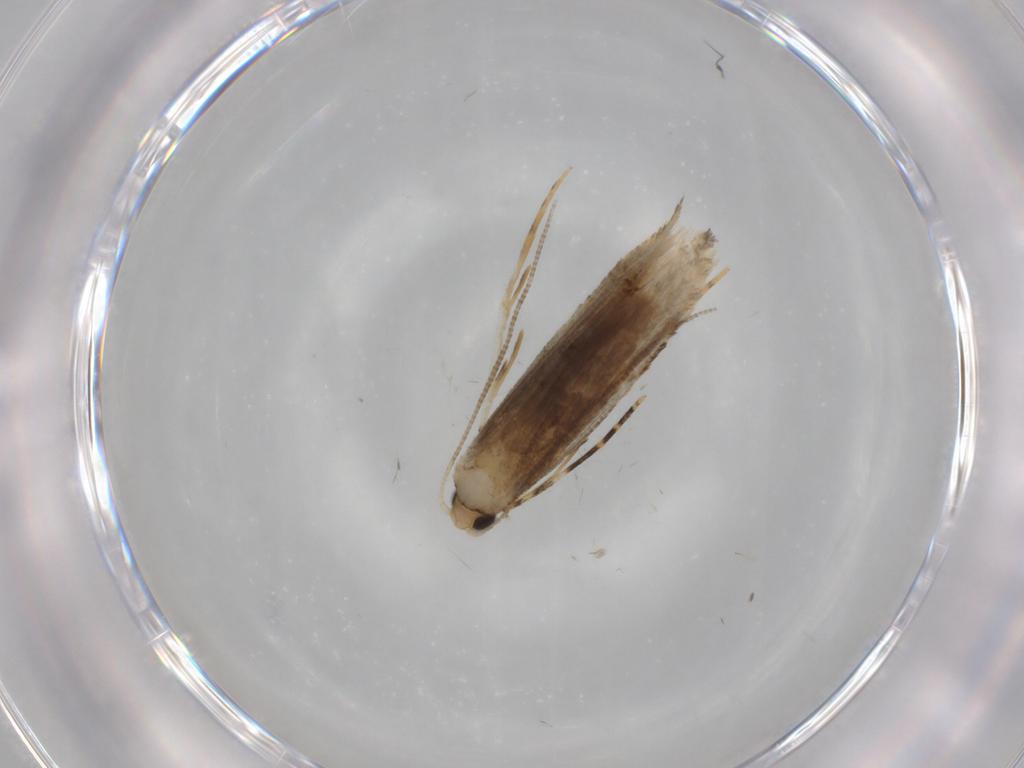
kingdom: Animalia
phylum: Arthropoda
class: Insecta
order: Lepidoptera
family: Tineidae
